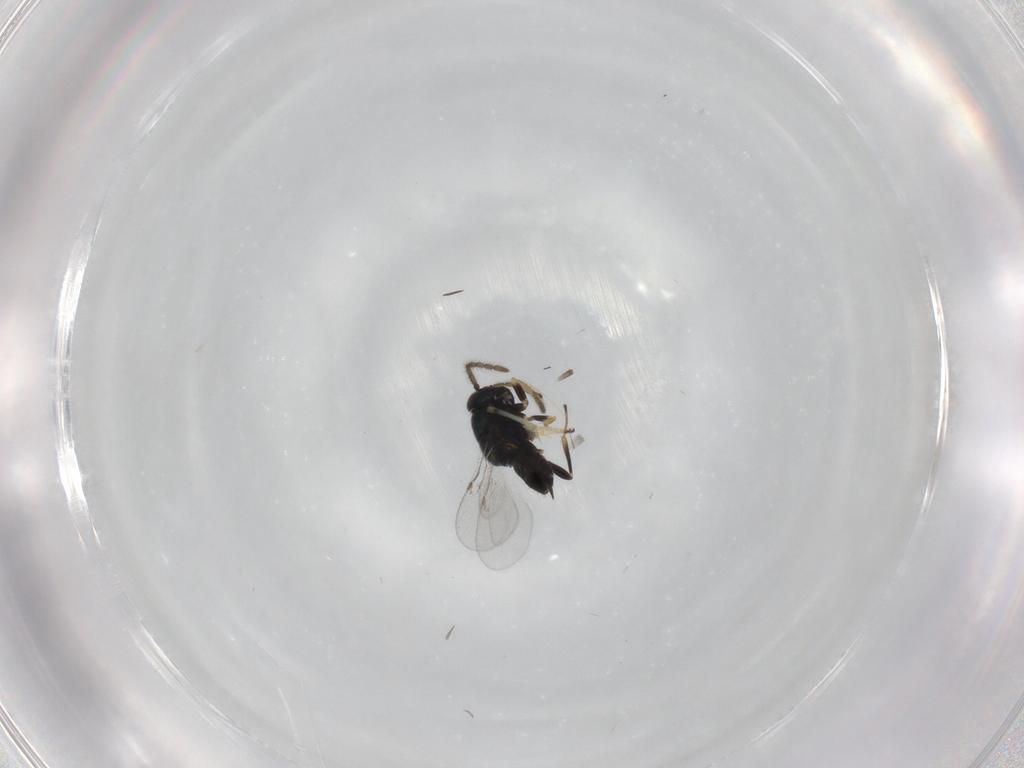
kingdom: Animalia
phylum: Arthropoda
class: Insecta
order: Hymenoptera
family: Encyrtidae
